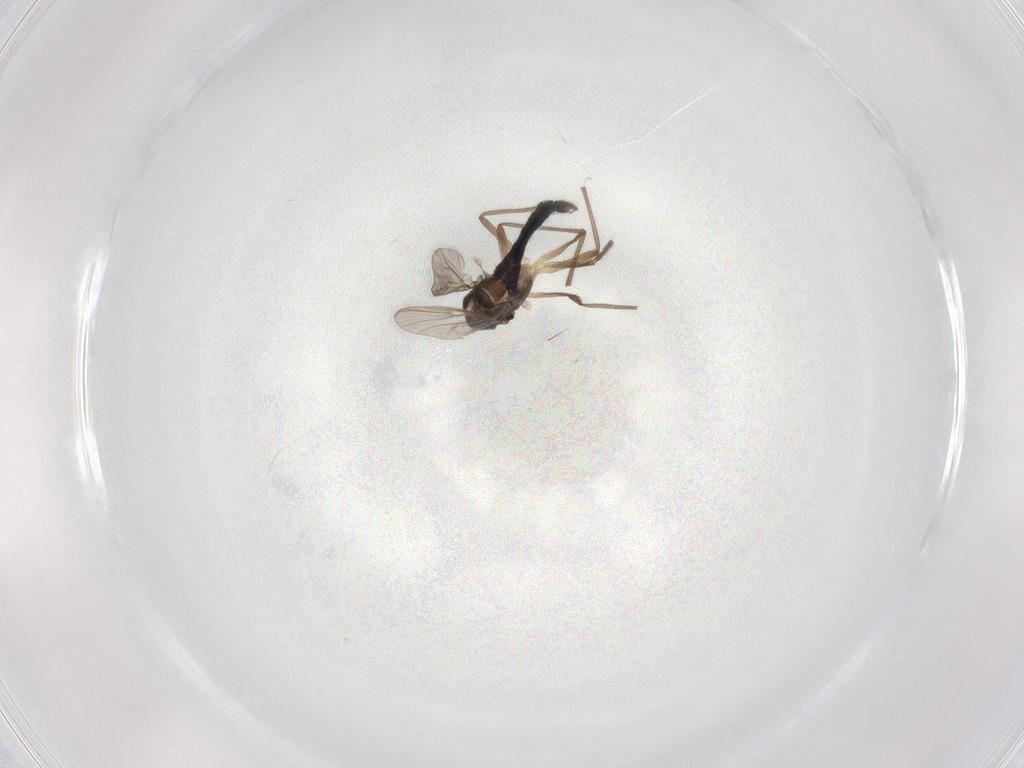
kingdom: Animalia
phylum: Arthropoda
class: Insecta
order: Diptera
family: Chironomidae
